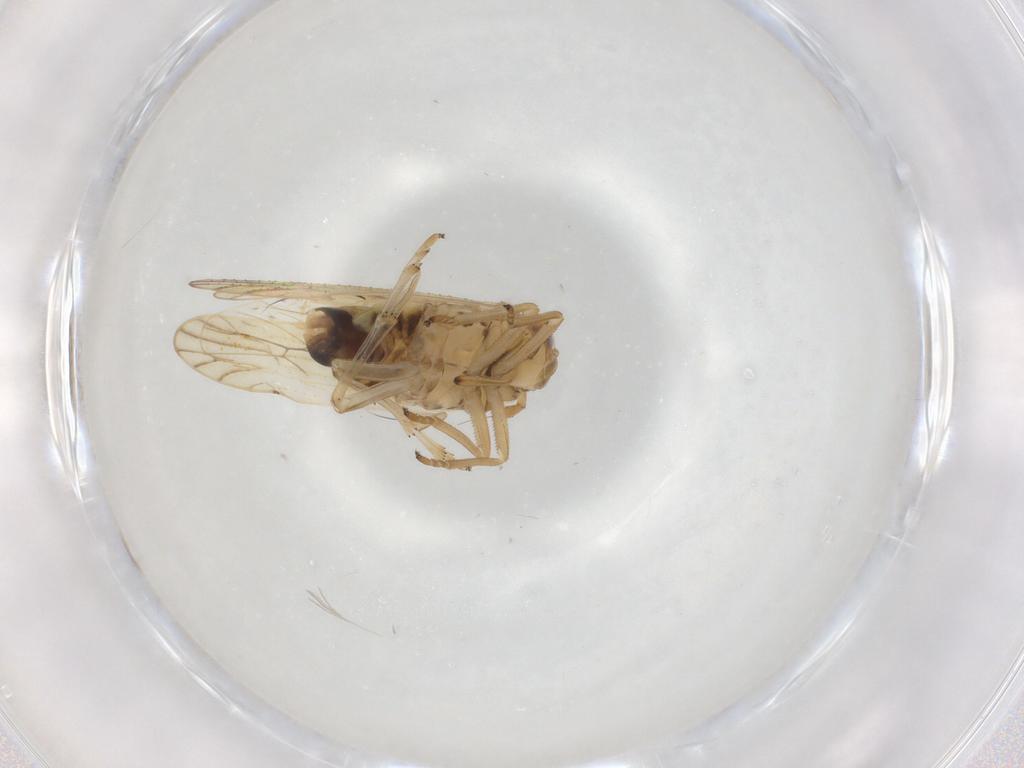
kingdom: Animalia
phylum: Arthropoda
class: Insecta
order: Hemiptera
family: Delphacidae
